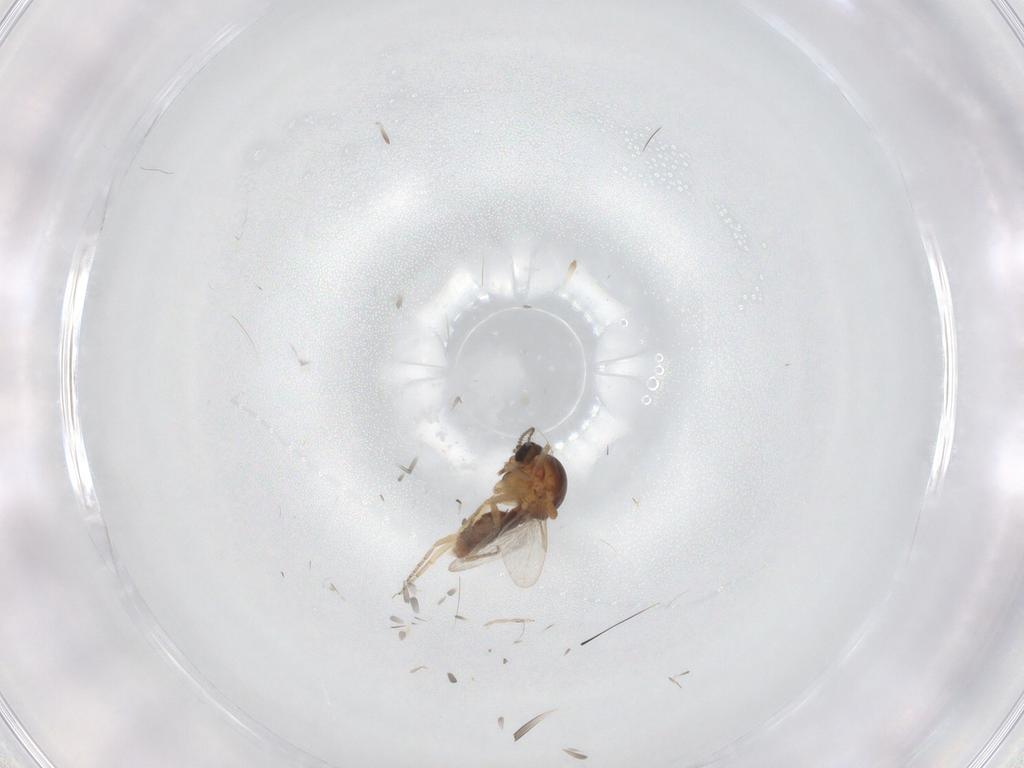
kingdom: Animalia
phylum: Arthropoda
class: Insecta
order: Diptera
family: Ceratopogonidae
